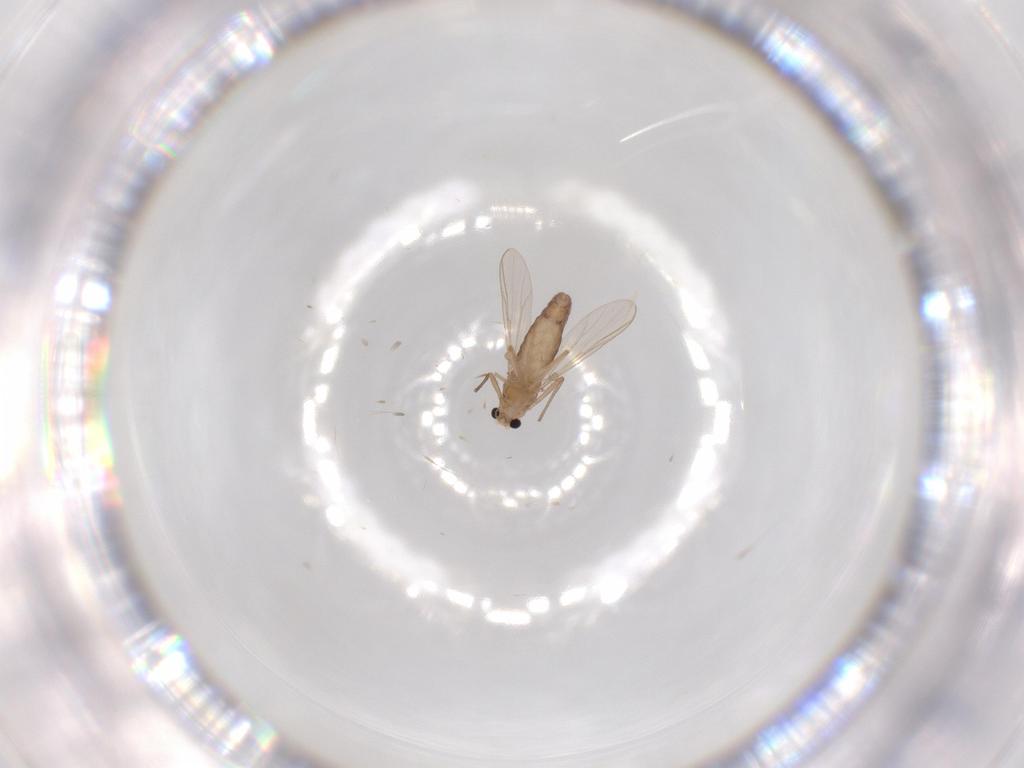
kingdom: Animalia
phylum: Arthropoda
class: Insecta
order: Diptera
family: Chironomidae
